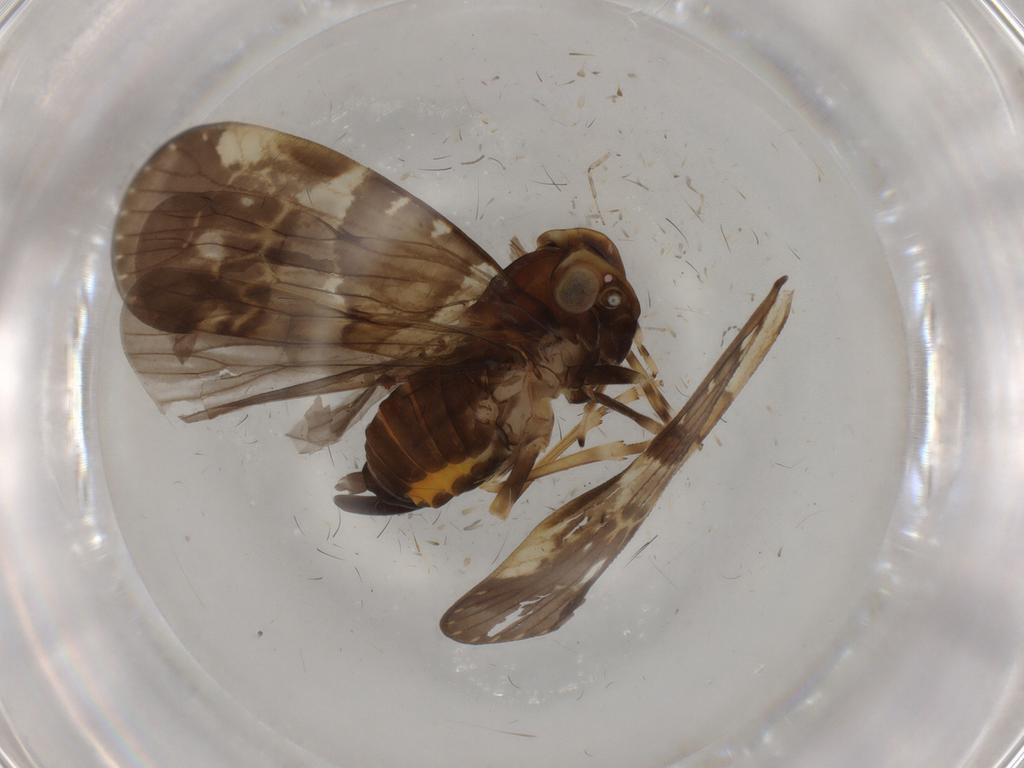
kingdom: Animalia
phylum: Arthropoda
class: Insecta
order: Hemiptera
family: Cixiidae
